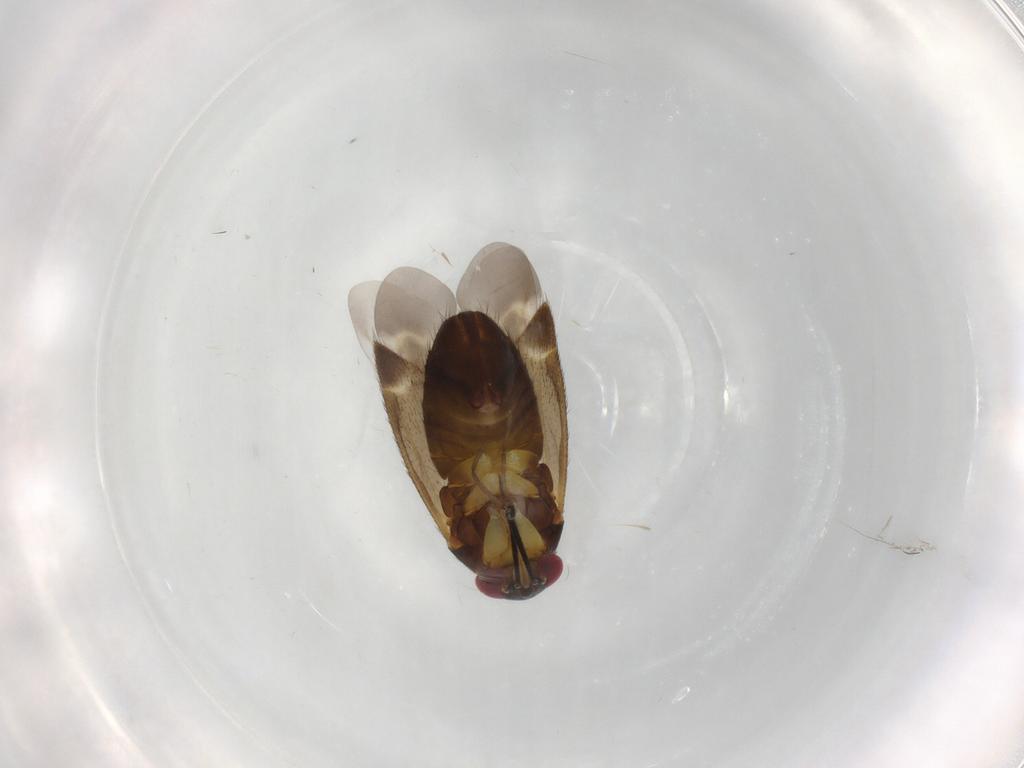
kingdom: Animalia
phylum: Arthropoda
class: Insecta
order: Hemiptera
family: Miridae
